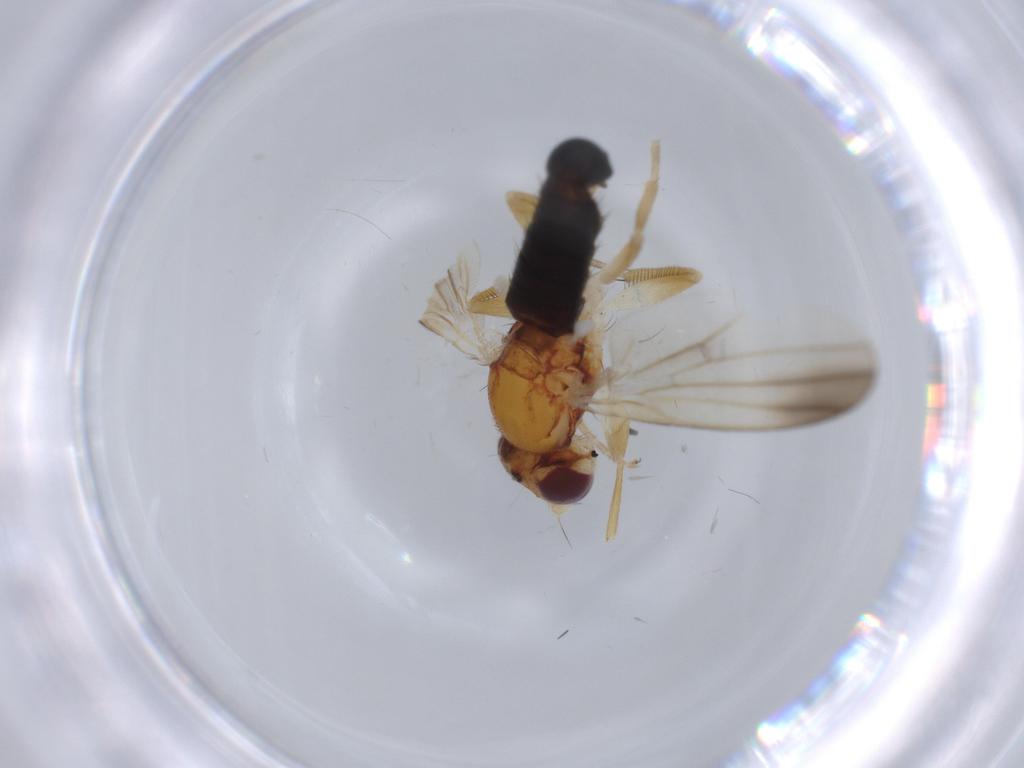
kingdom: Animalia
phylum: Arthropoda
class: Insecta
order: Diptera
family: Clusiidae
